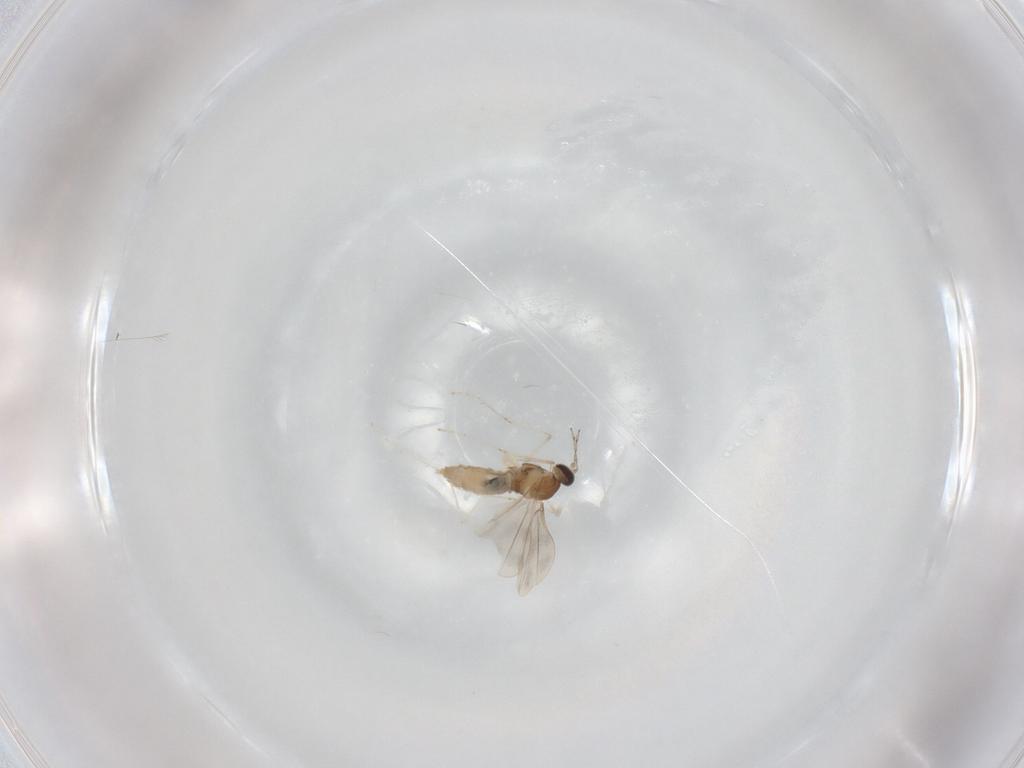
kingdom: Animalia
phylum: Arthropoda
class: Insecta
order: Diptera
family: Cecidomyiidae
